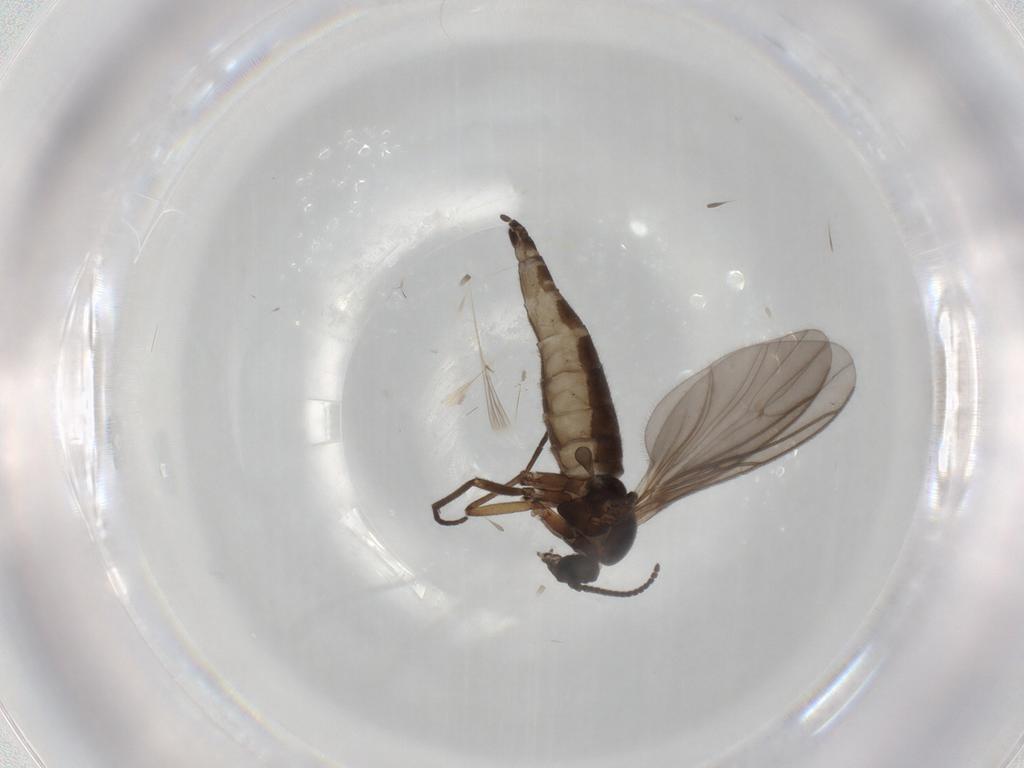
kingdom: Animalia
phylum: Arthropoda
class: Insecta
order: Diptera
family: Sciaridae
